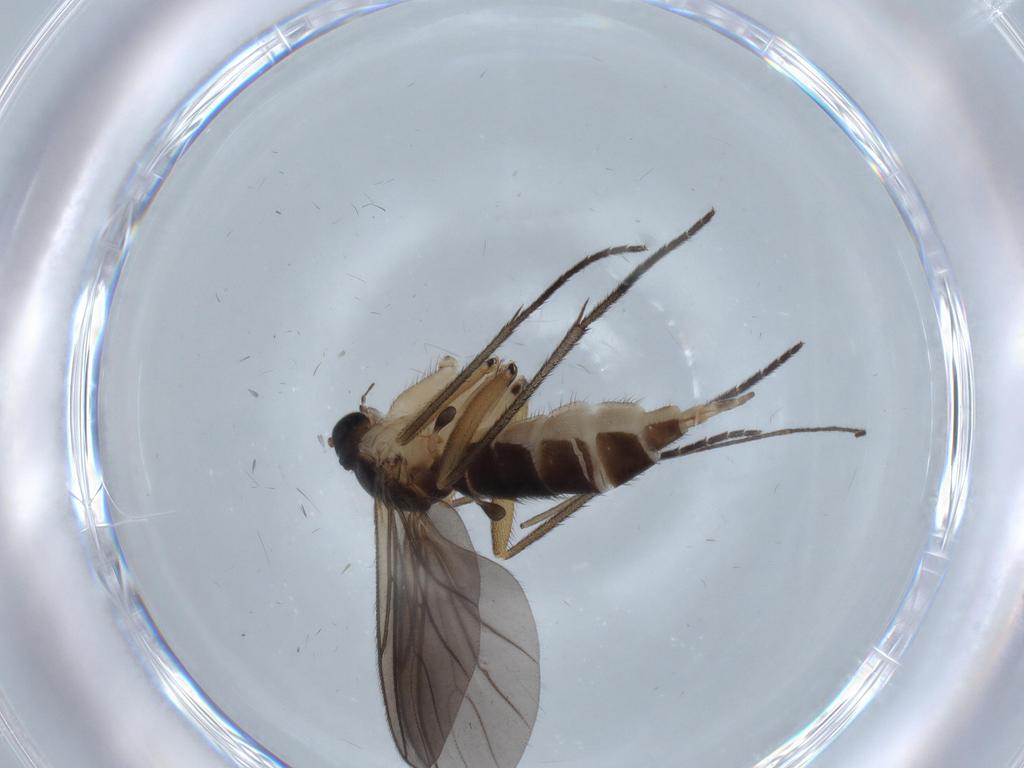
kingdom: Animalia
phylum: Arthropoda
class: Insecta
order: Diptera
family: Sciaridae
